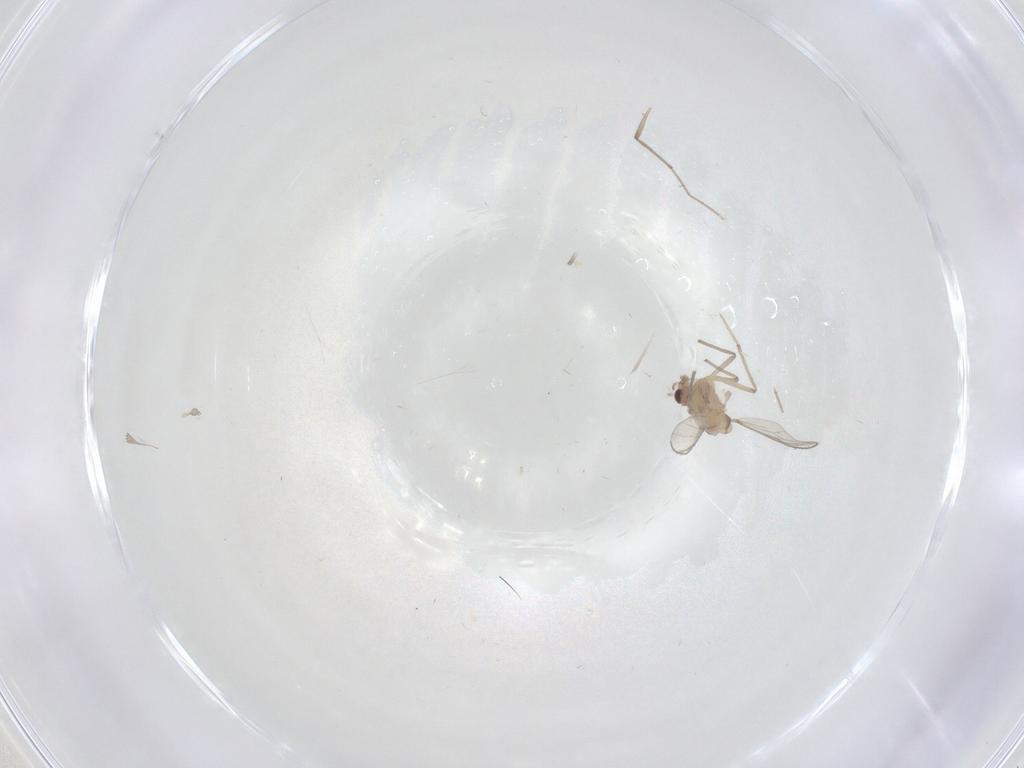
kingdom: Animalia
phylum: Arthropoda
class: Insecta
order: Diptera
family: Chironomidae
